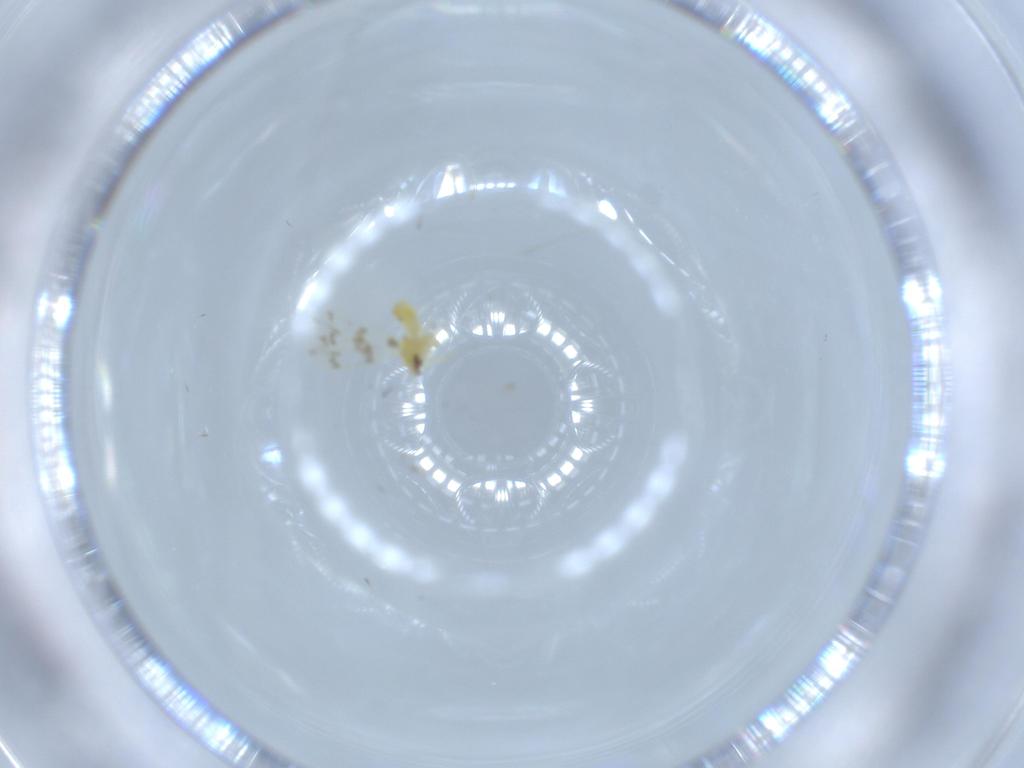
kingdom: Animalia
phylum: Arthropoda
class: Insecta
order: Hemiptera
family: Aleyrodidae
